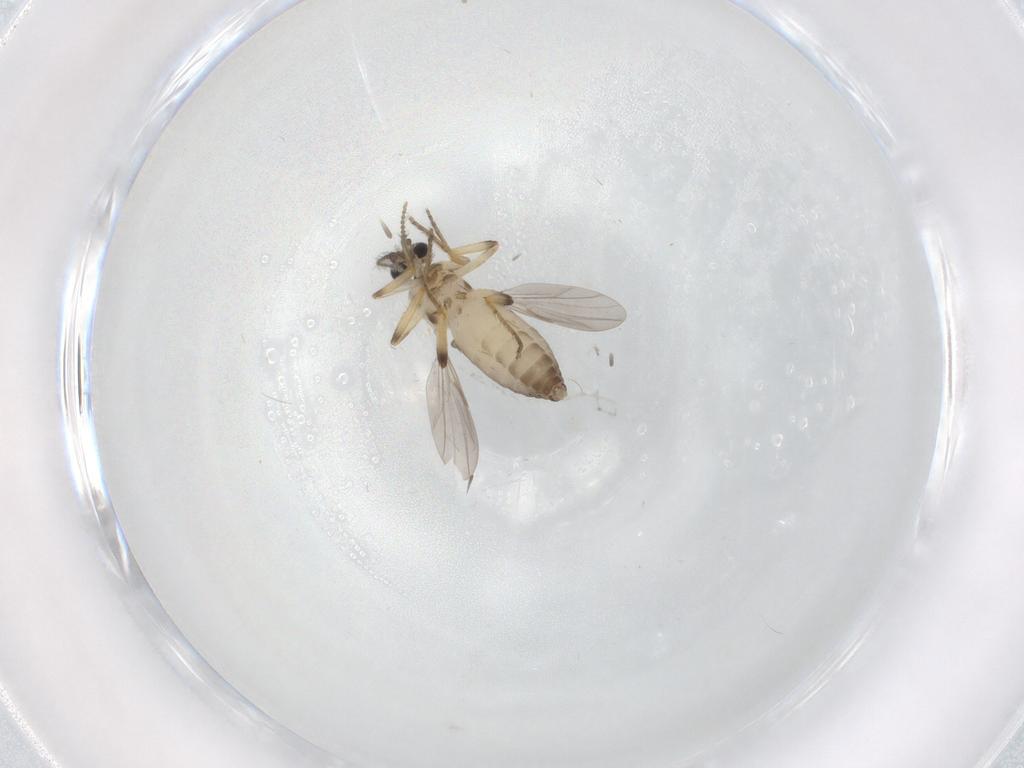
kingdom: Animalia
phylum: Arthropoda
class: Insecta
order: Diptera
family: Ceratopogonidae
